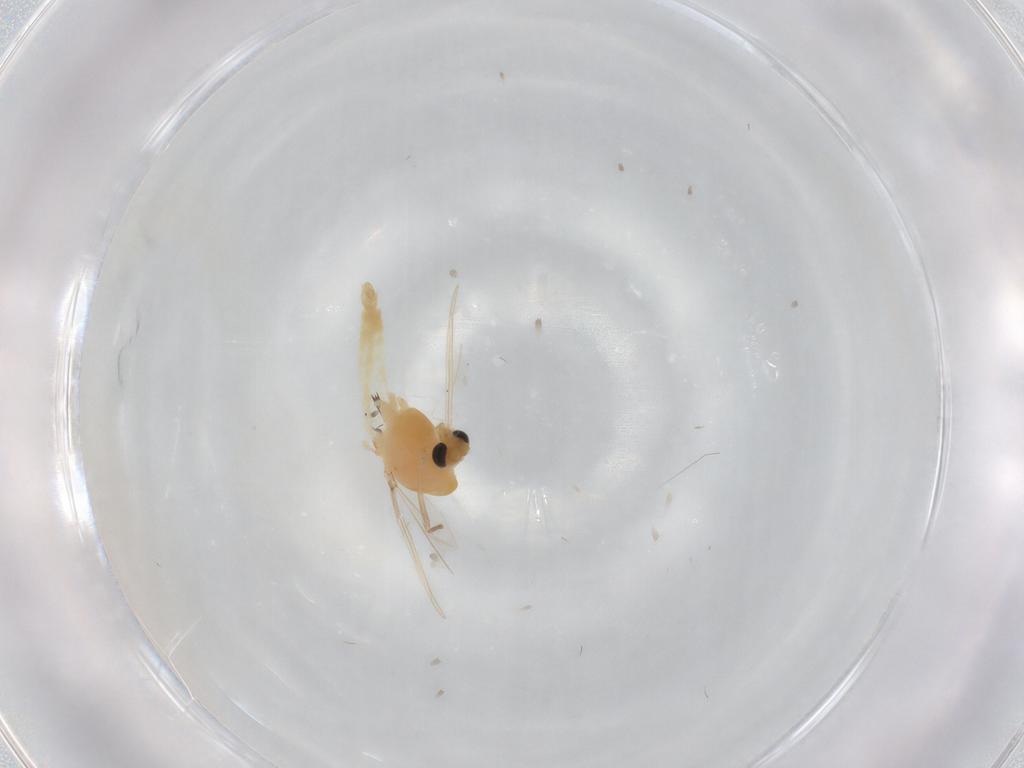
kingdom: Animalia
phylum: Arthropoda
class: Insecta
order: Diptera
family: Chironomidae
